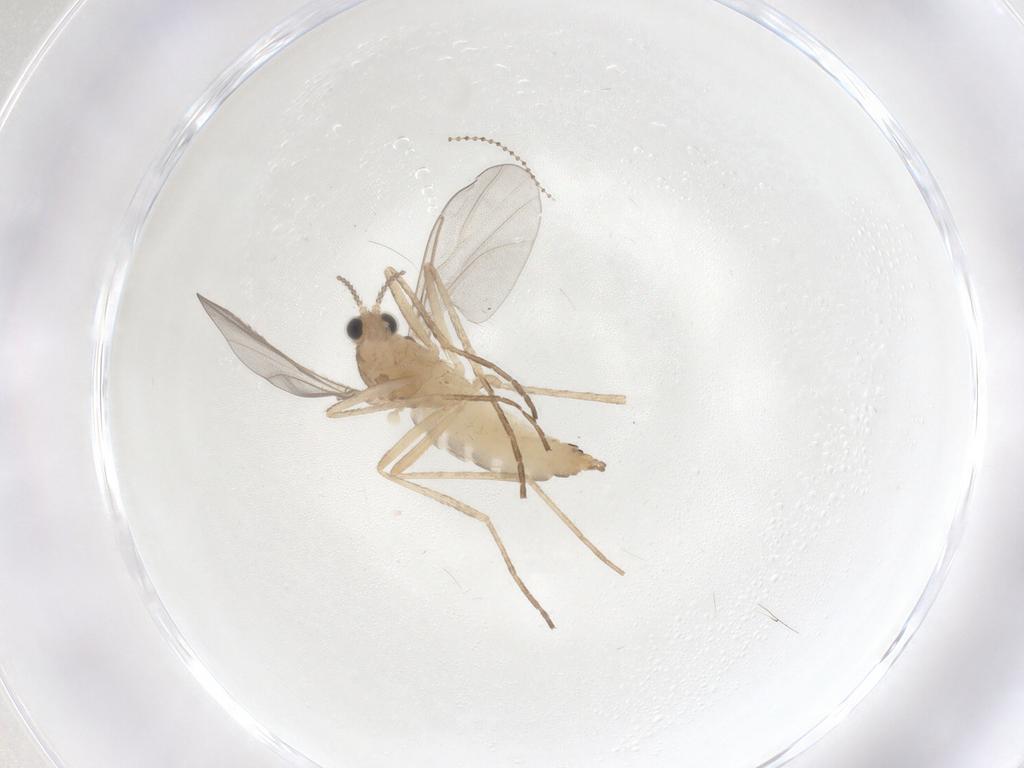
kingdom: Animalia
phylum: Arthropoda
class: Insecta
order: Diptera
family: Cecidomyiidae
